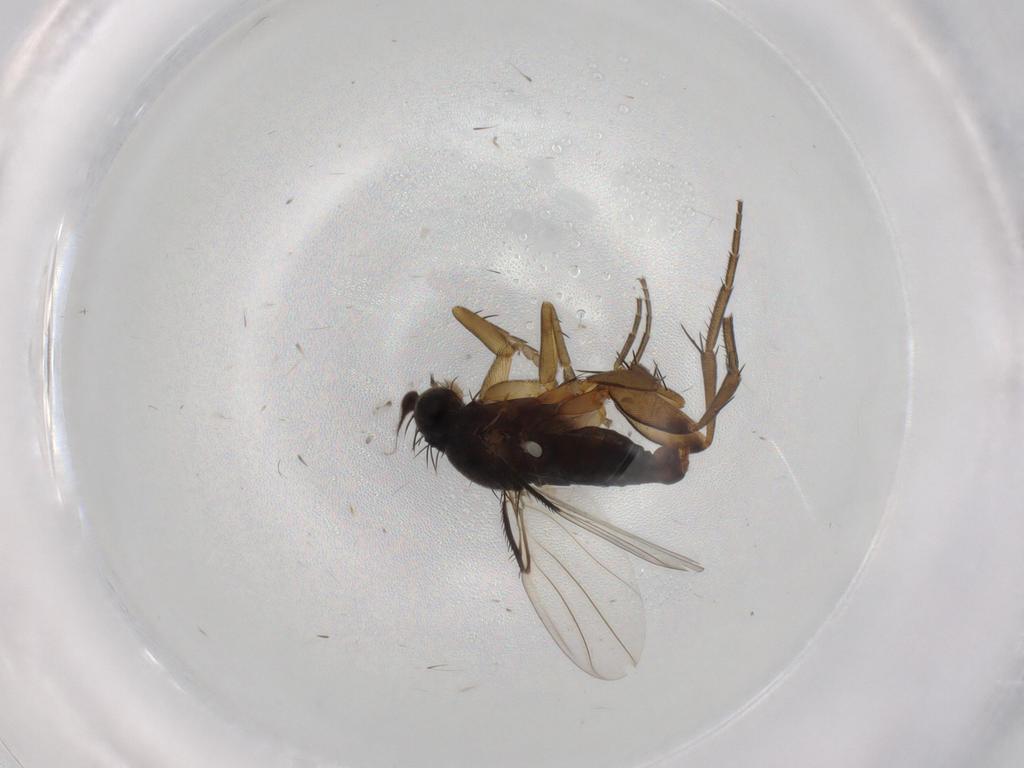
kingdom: Animalia
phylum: Arthropoda
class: Insecta
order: Diptera
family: Phoridae
